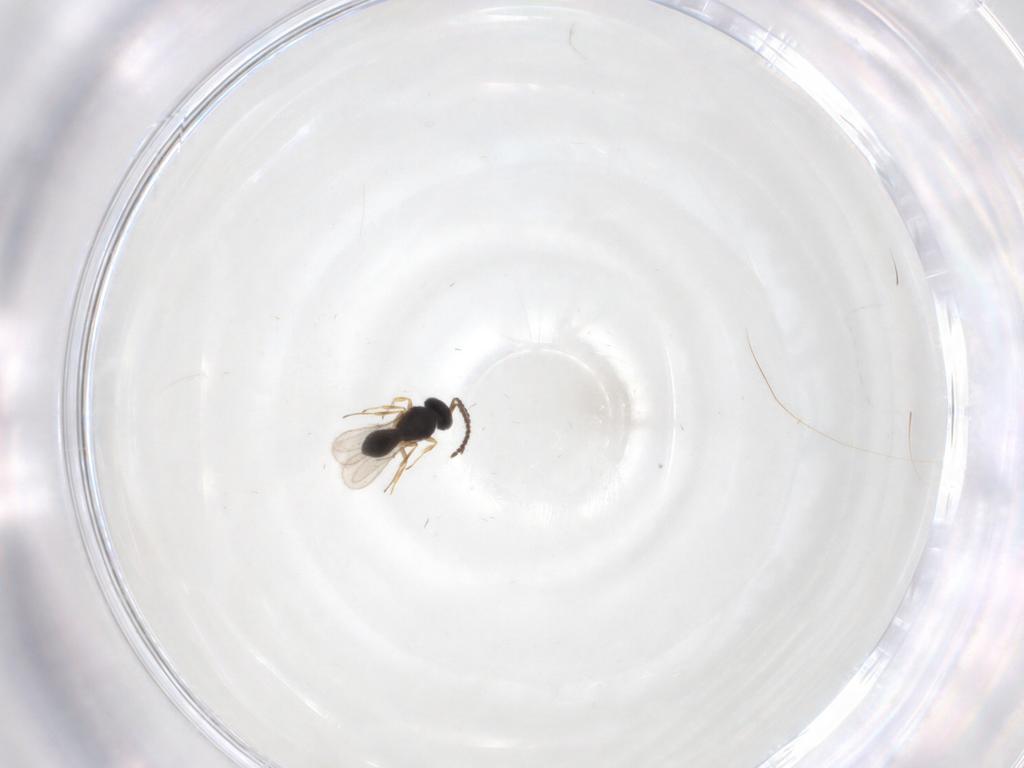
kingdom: Animalia
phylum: Arthropoda
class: Insecta
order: Hymenoptera
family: Scelionidae
